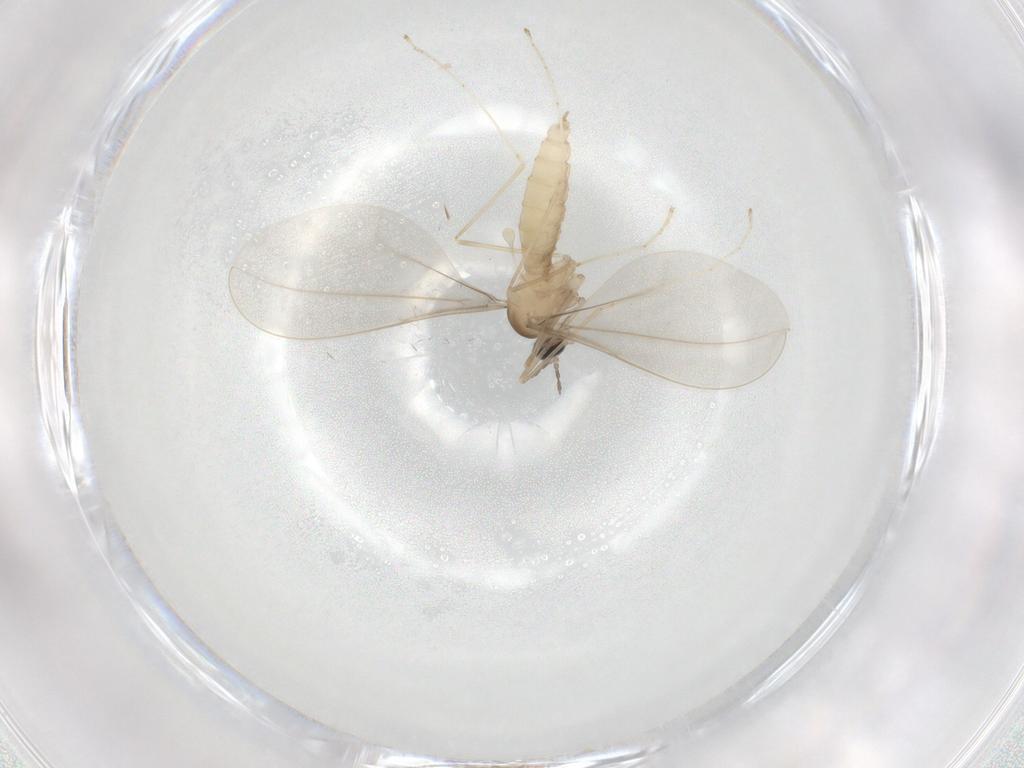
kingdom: Animalia
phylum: Arthropoda
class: Insecta
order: Diptera
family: Cecidomyiidae
